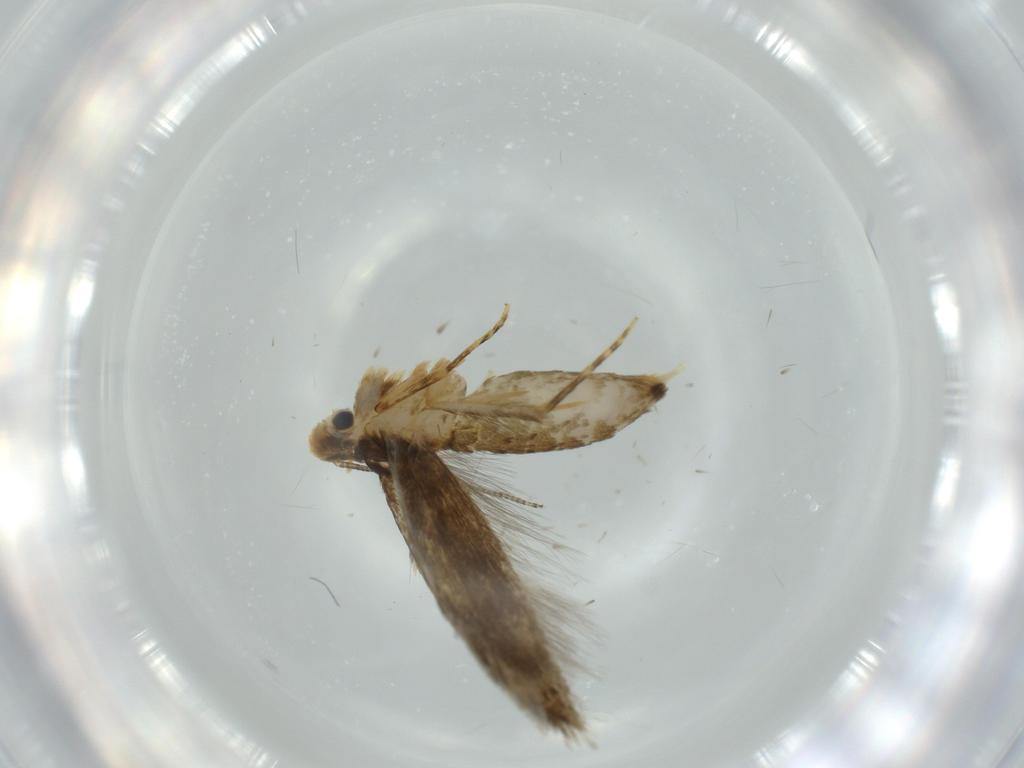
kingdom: Animalia
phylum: Arthropoda
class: Insecta
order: Lepidoptera
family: Tineidae
